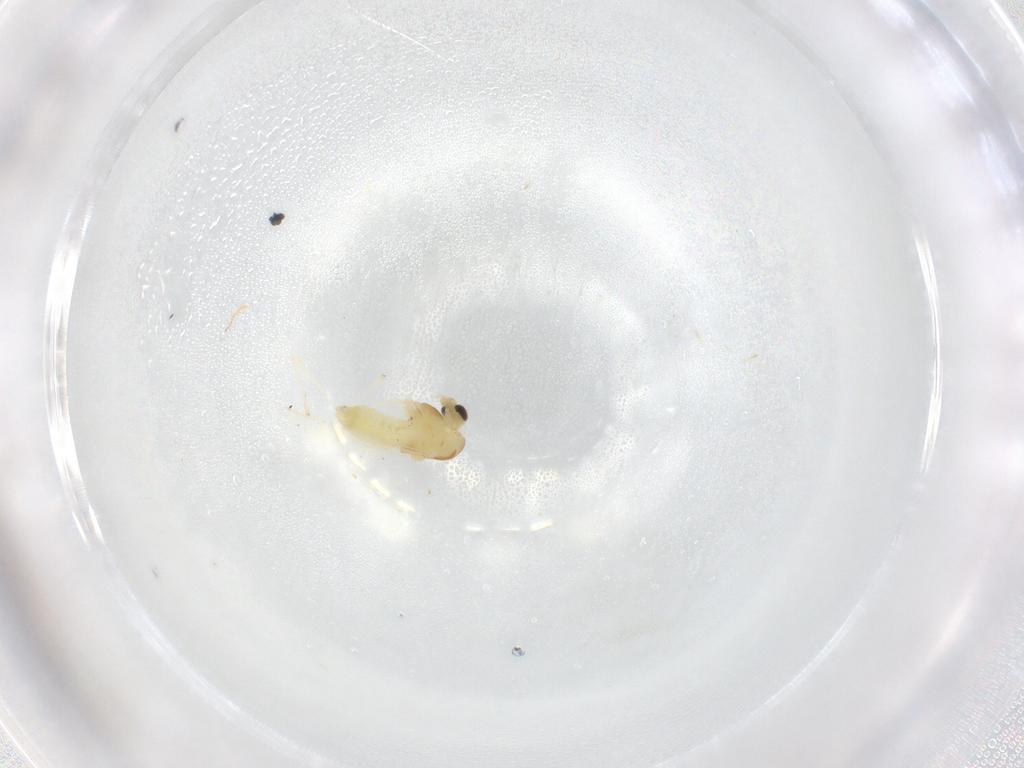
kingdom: Animalia
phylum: Arthropoda
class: Insecta
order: Diptera
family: Chironomidae
